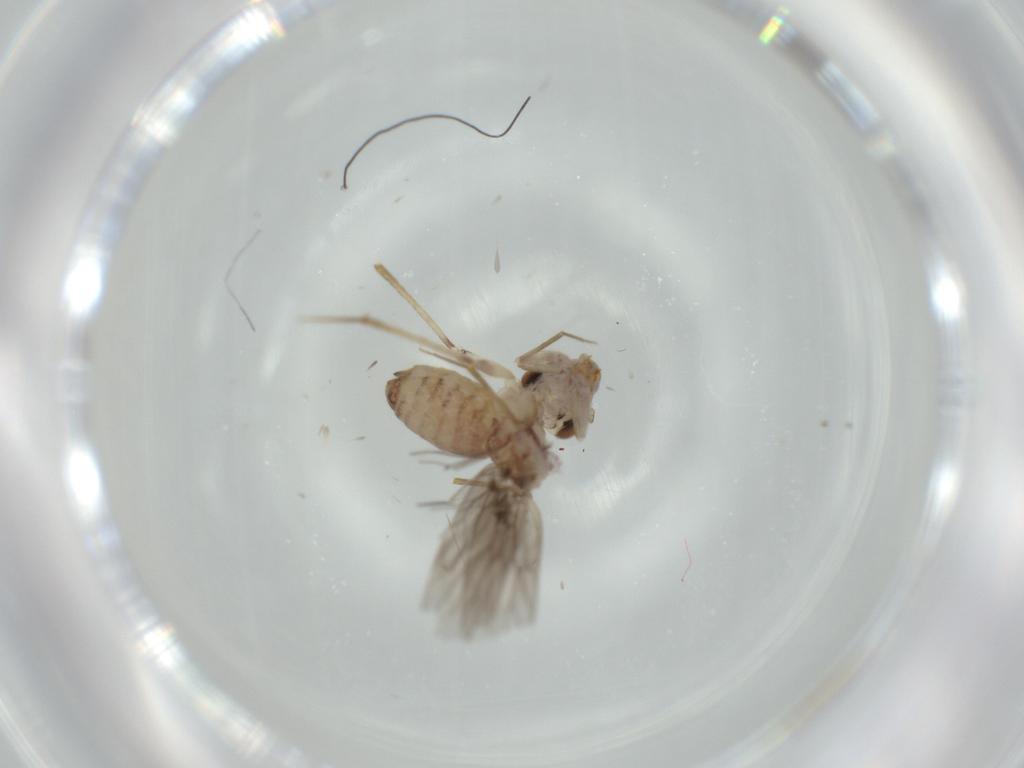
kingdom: Animalia
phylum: Arthropoda
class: Insecta
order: Psocodea
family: Lepidopsocidae
